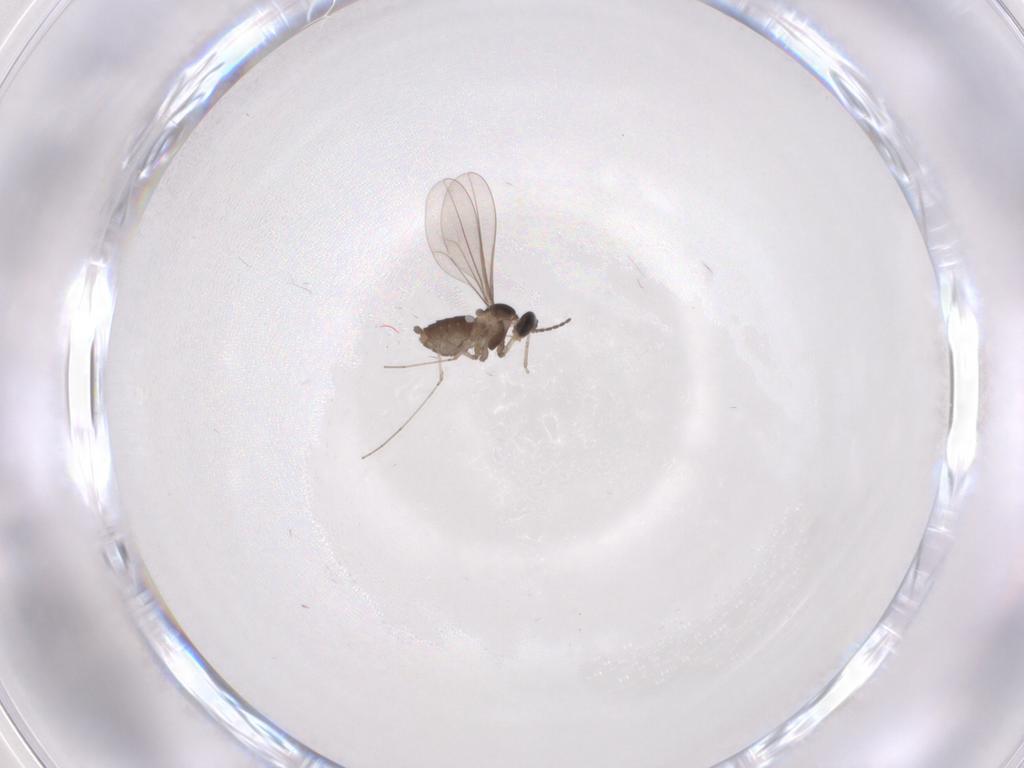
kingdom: Animalia
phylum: Arthropoda
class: Insecta
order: Diptera
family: Cecidomyiidae
